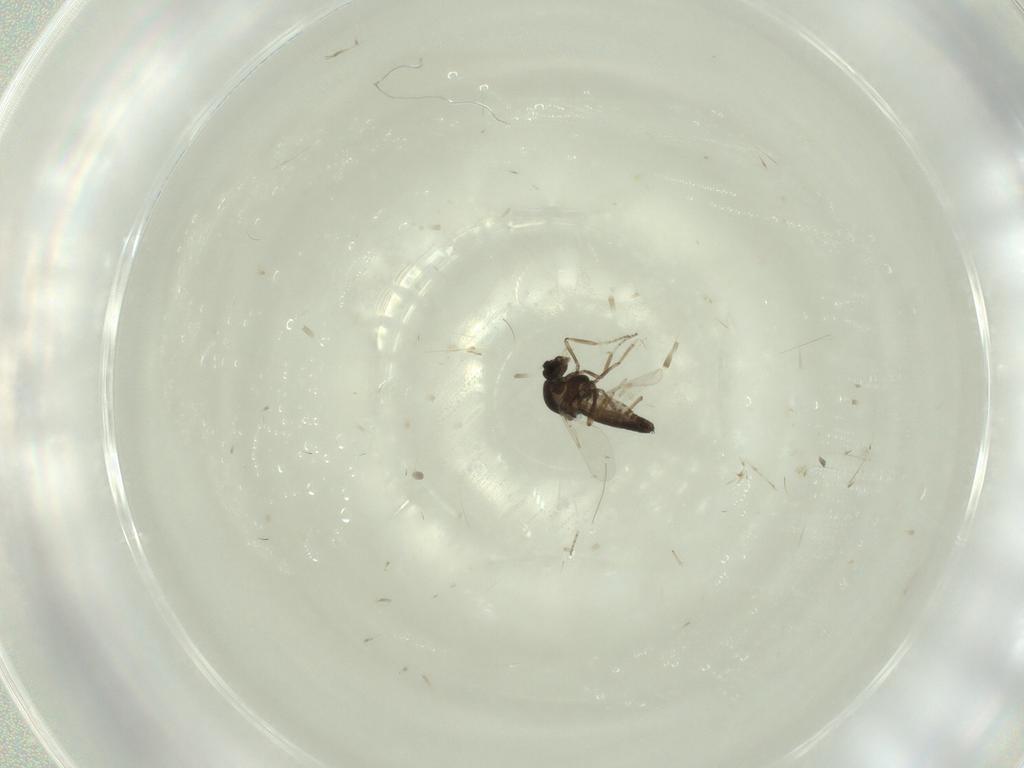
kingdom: Animalia
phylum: Arthropoda
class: Insecta
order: Diptera
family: Ceratopogonidae
